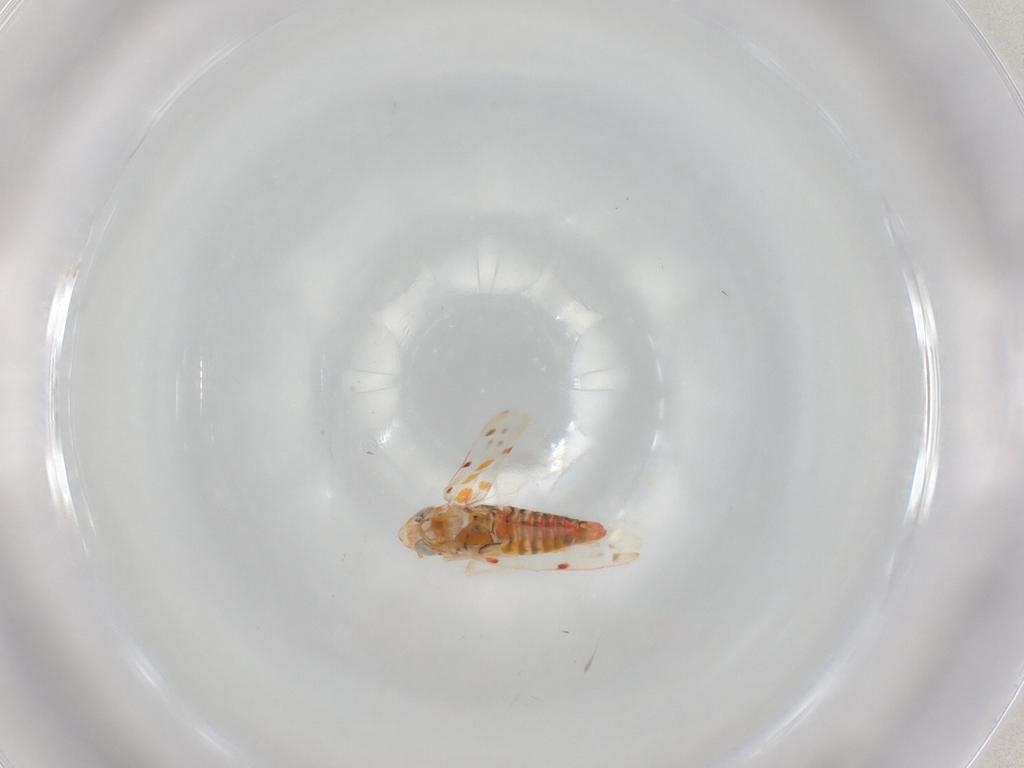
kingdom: Animalia
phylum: Arthropoda
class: Insecta
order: Hemiptera
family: Cicadellidae
